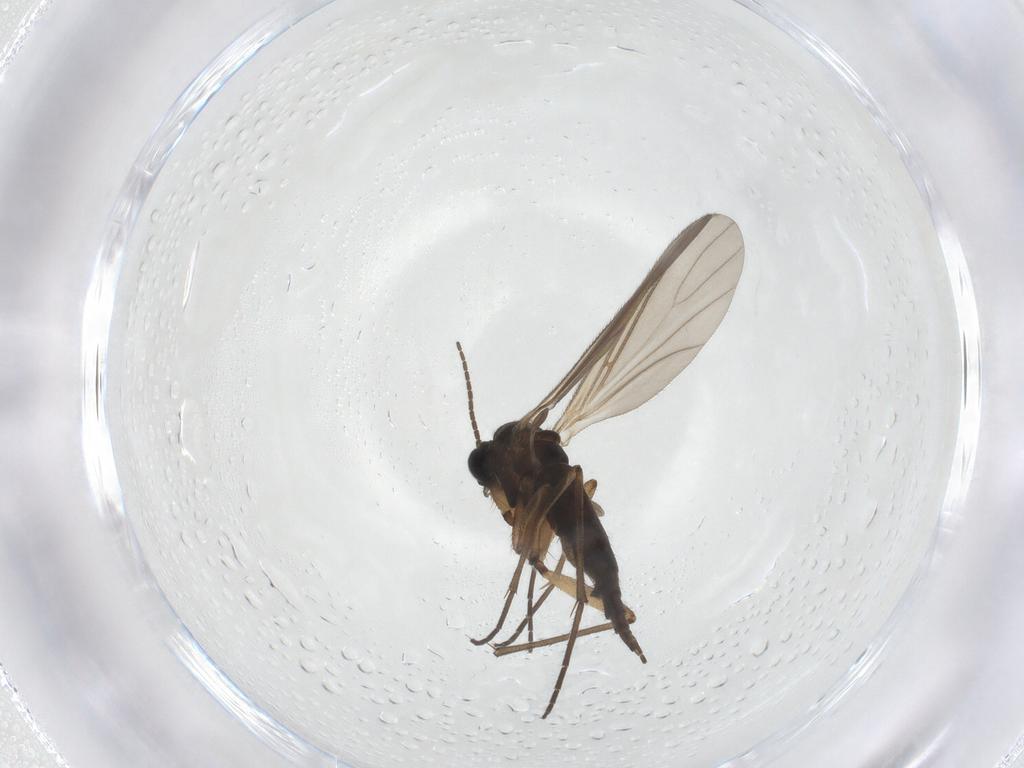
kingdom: Animalia
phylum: Arthropoda
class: Insecta
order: Diptera
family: Sciaridae
